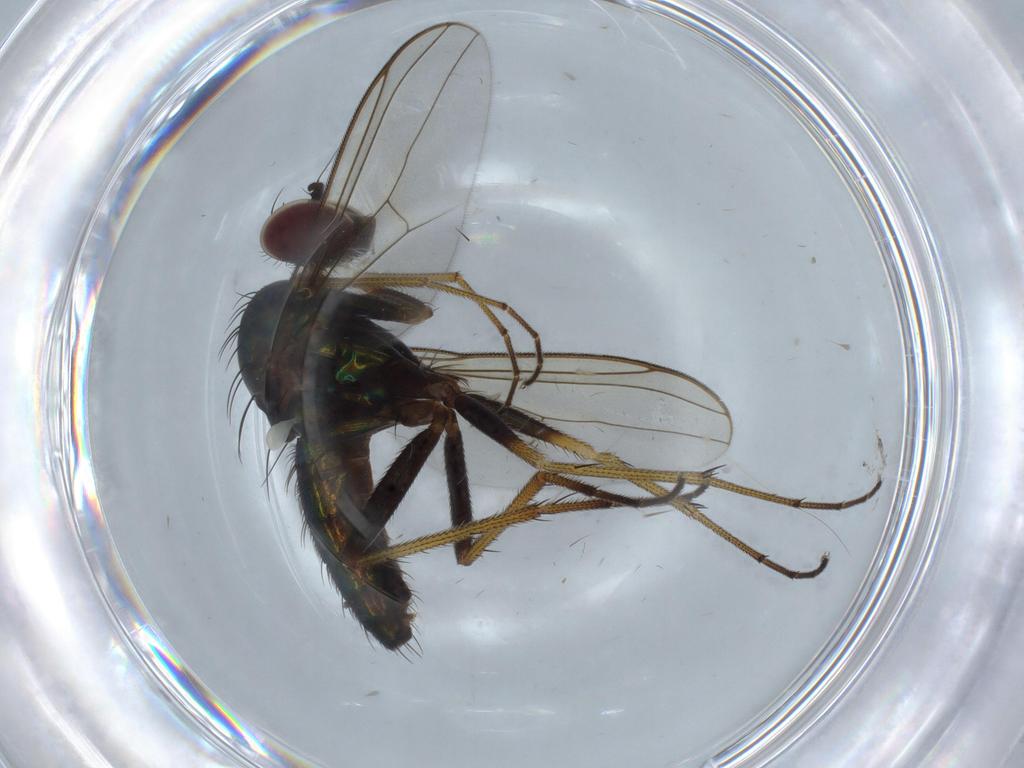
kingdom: Animalia
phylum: Arthropoda
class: Insecta
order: Diptera
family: Dolichopodidae
